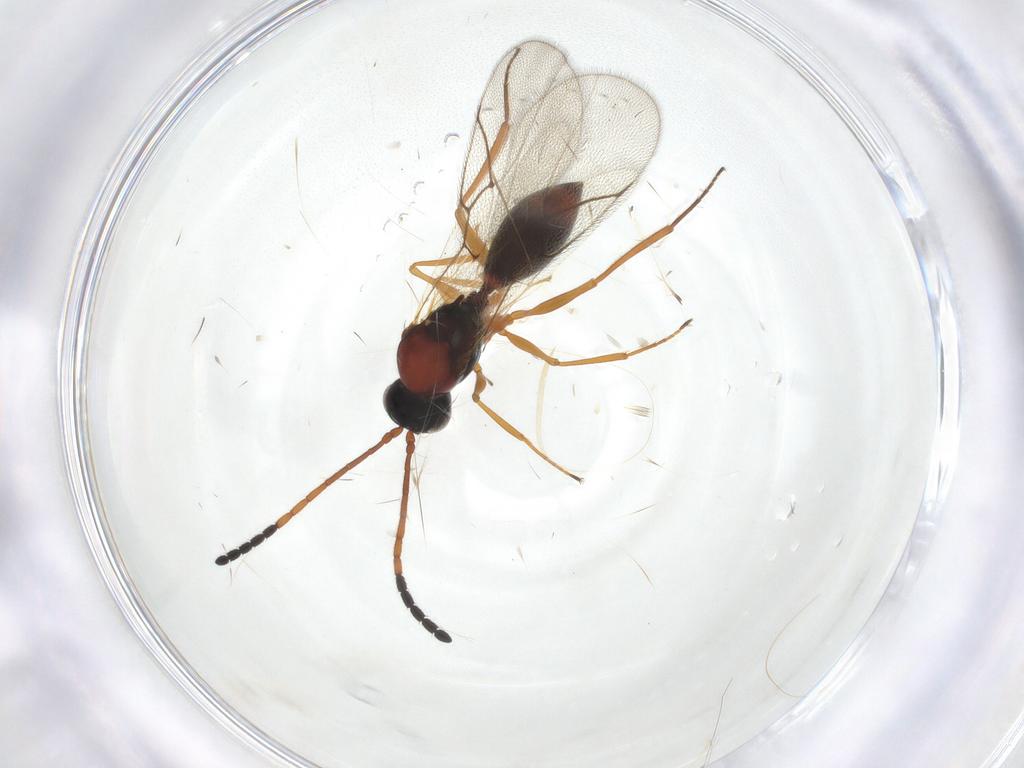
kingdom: Animalia
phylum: Arthropoda
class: Insecta
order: Hymenoptera
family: Figitidae
